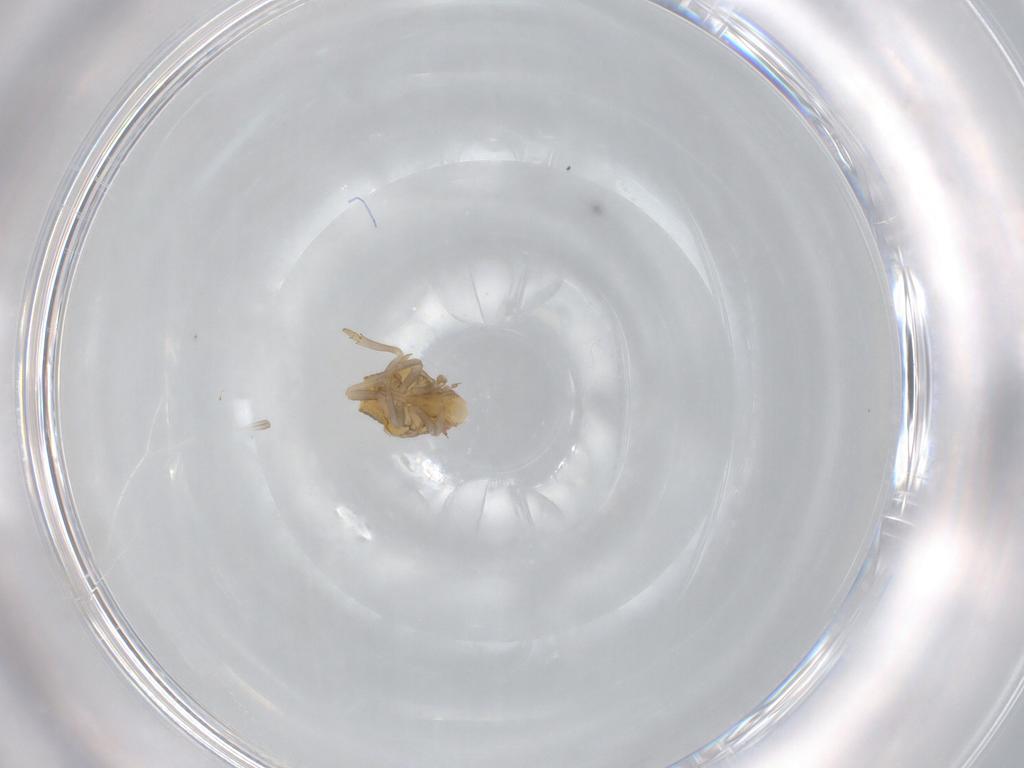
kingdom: Animalia
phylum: Arthropoda
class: Insecta
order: Hemiptera
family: Flatidae
